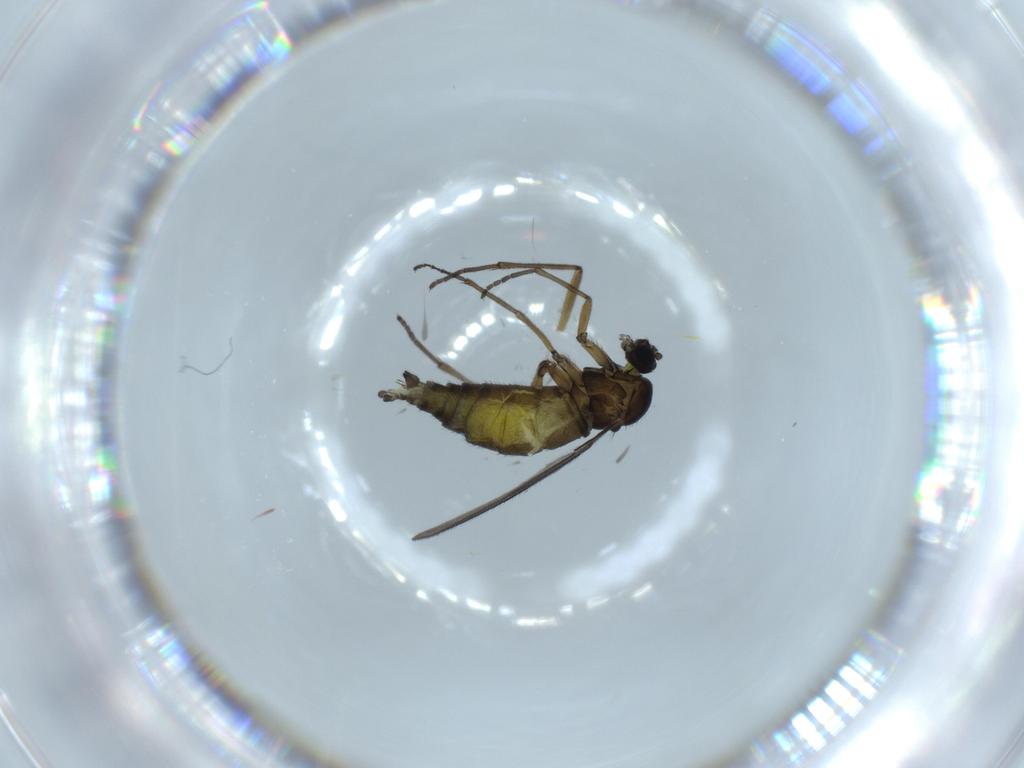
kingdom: Animalia
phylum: Arthropoda
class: Insecta
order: Diptera
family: Sciaridae
